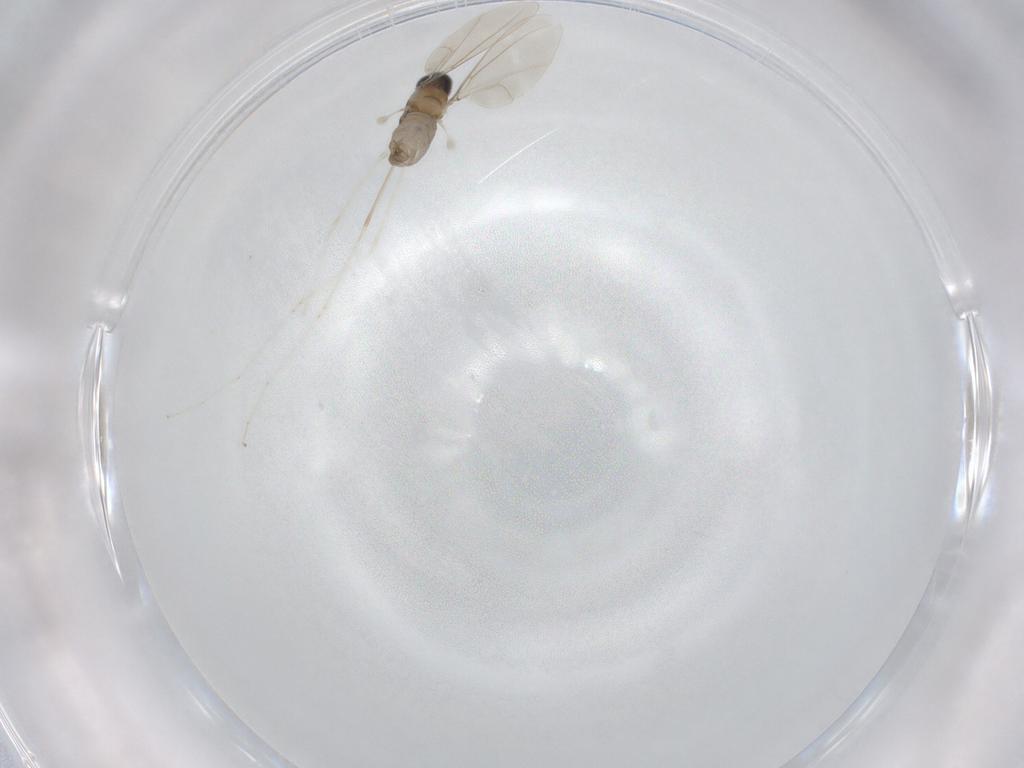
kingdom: Animalia
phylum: Arthropoda
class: Insecta
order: Diptera
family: Cecidomyiidae
